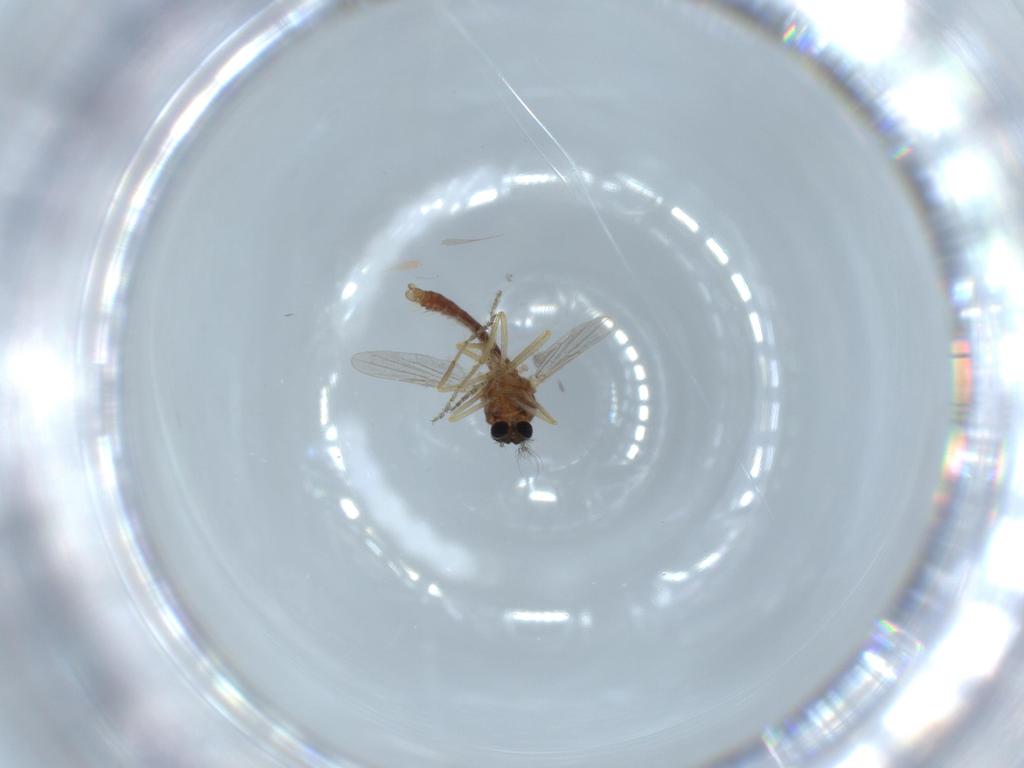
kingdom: Animalia
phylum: Arthropoda
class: Insecta
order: Diptera
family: Ceratopogonidae
